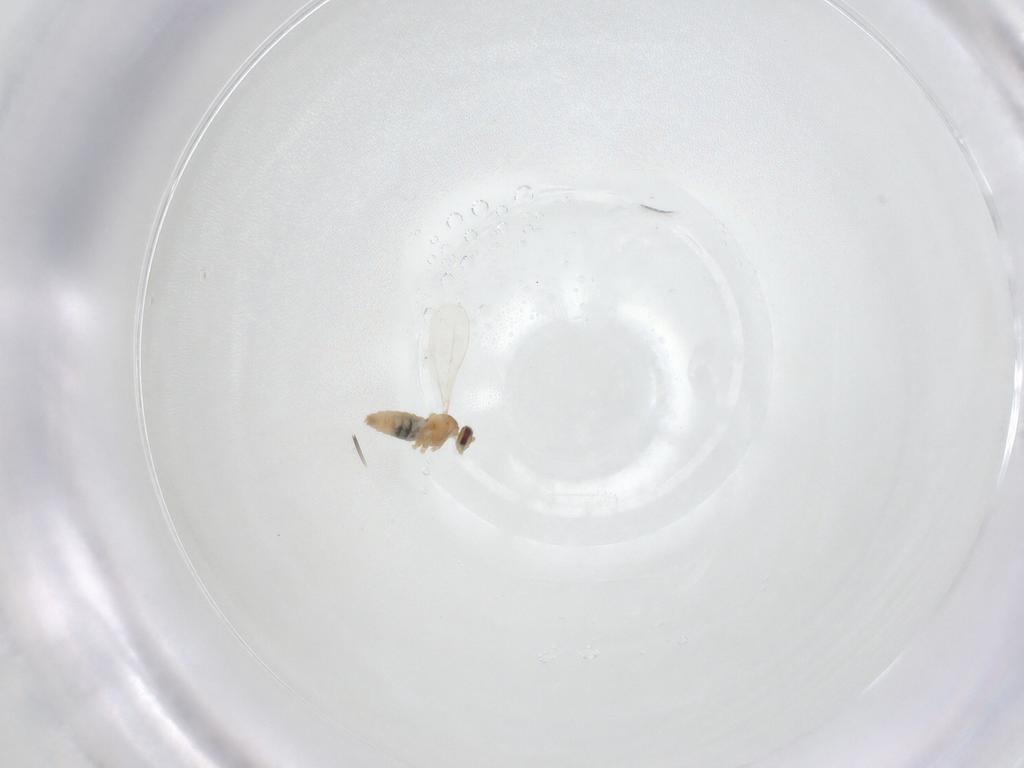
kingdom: Animalia
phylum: Arthropoda
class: Insecta
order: Diptera
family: Cecidomyiidae
